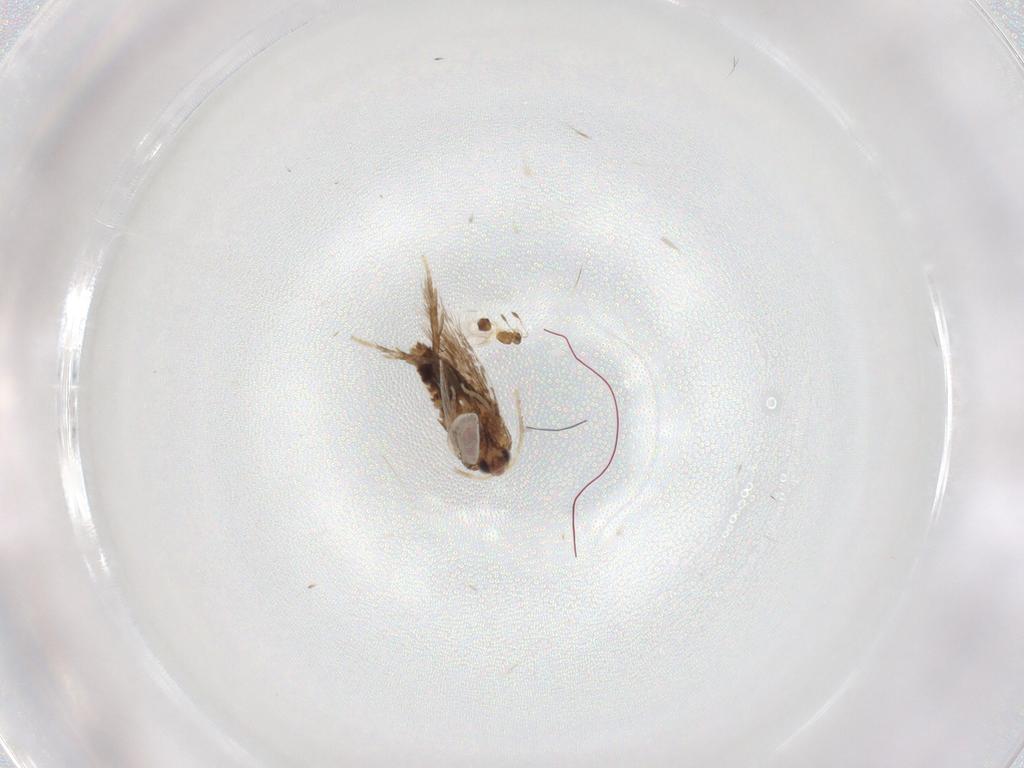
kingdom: Animalia
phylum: Arthropoda
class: Insecta
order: Lepidoptera
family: Nepticulidae
